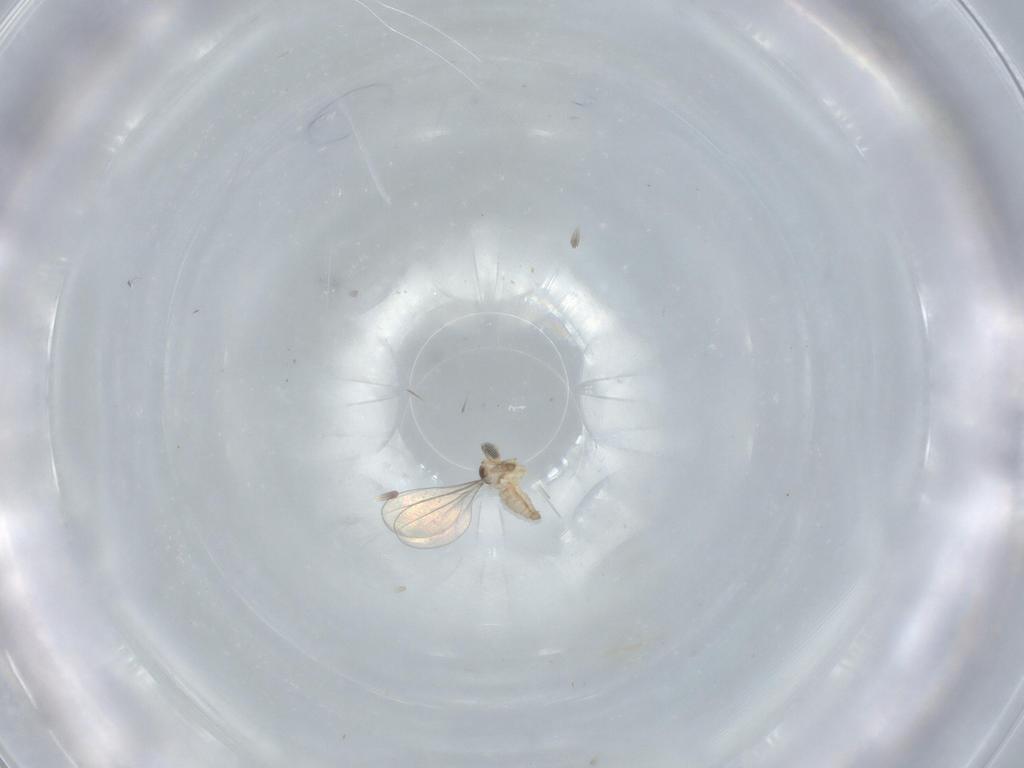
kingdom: Animalia
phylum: Arthropoda
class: Insecta
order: Diptera
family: Cecidomyiidae
